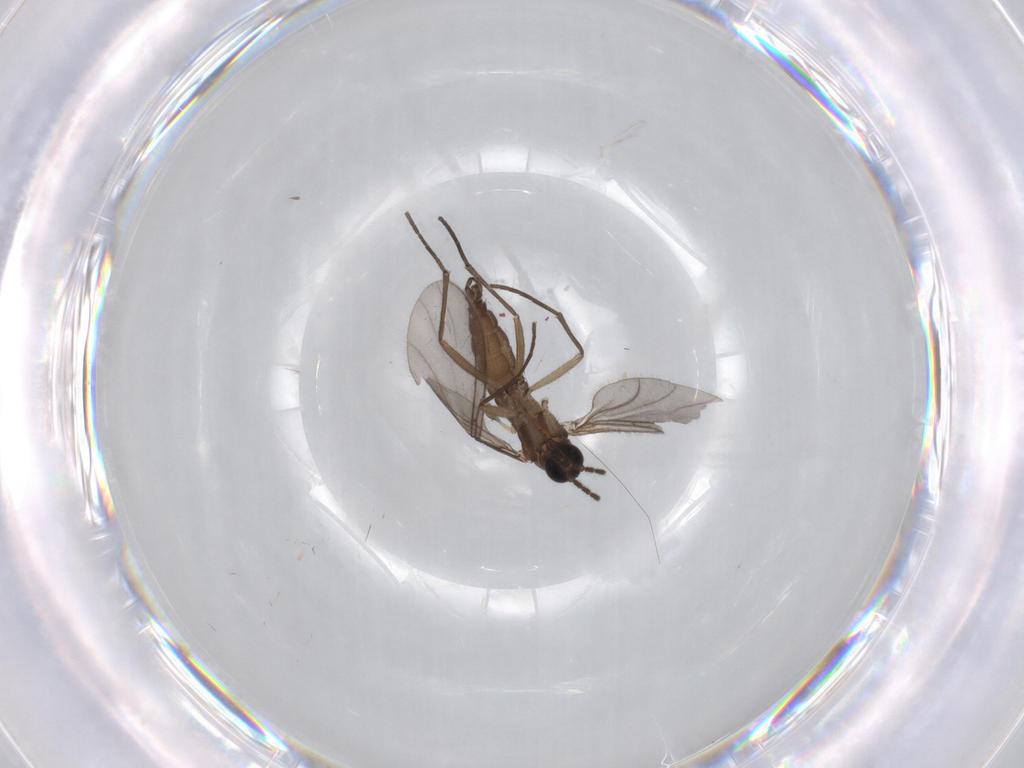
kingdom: Animalia
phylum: Arthropoda
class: Insecta
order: Diptera
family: Sciaridae
